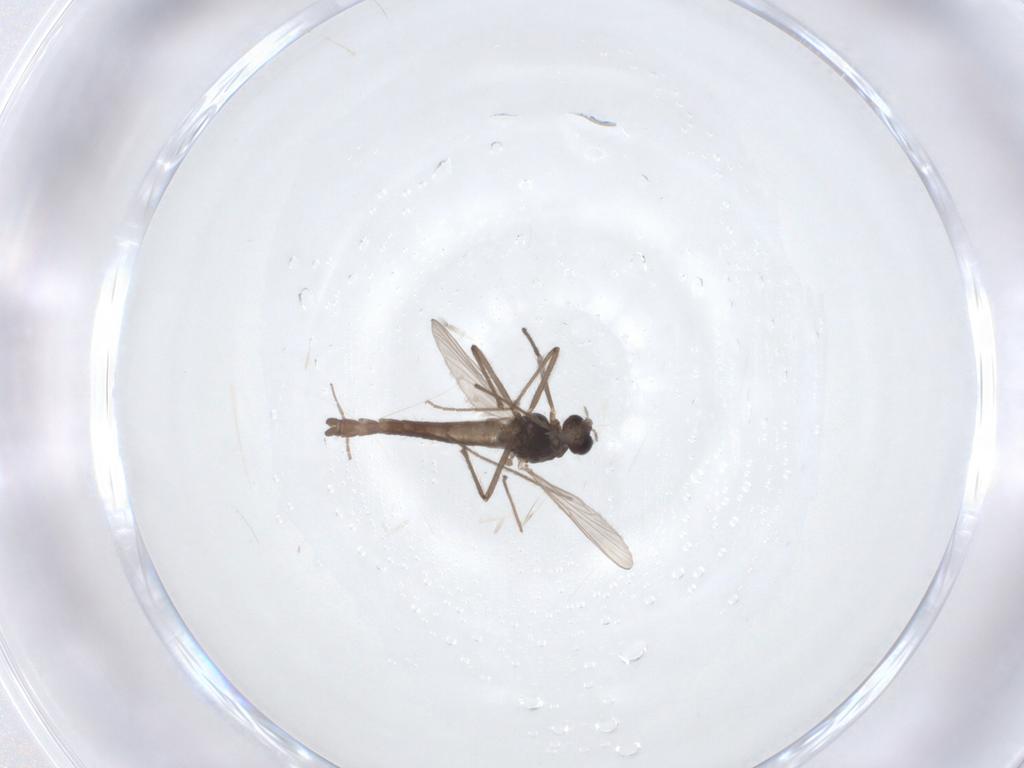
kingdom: Animalia
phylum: Arthropoda
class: Insecta
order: Diptera
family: Chironomidae
